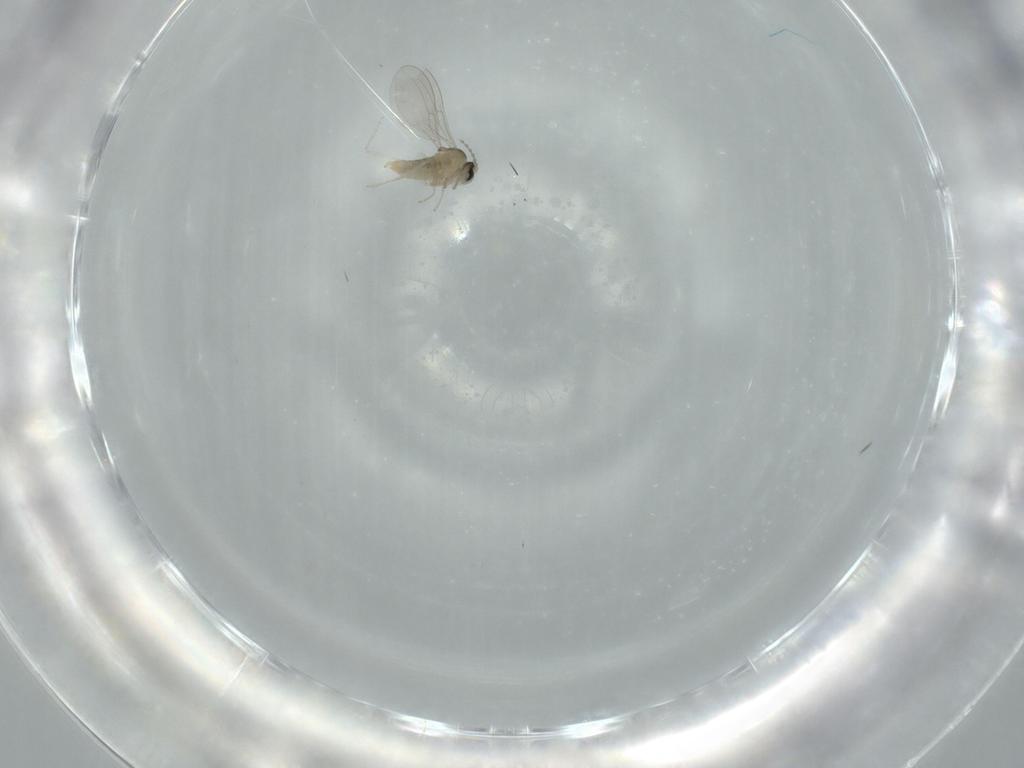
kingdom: Animalia
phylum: Arthropoda
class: Insecta
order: Diptera
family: Cecidomyiidae
